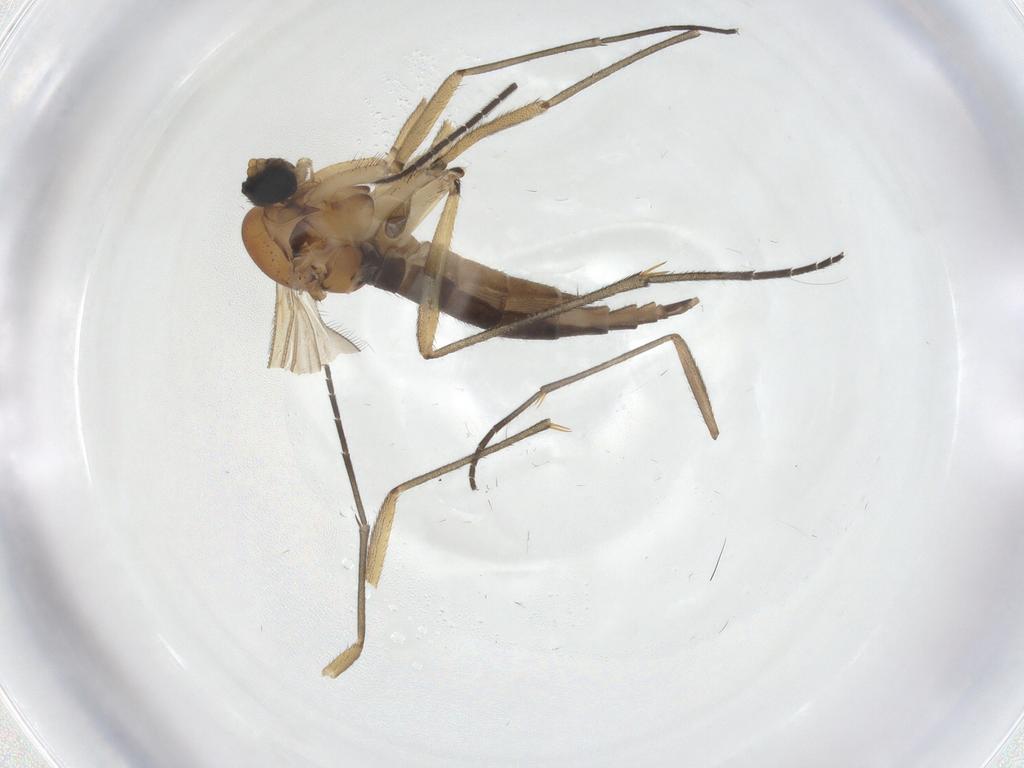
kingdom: Animalia
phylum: Arthropoda
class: Insecta
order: Diptera
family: Sciaridae
